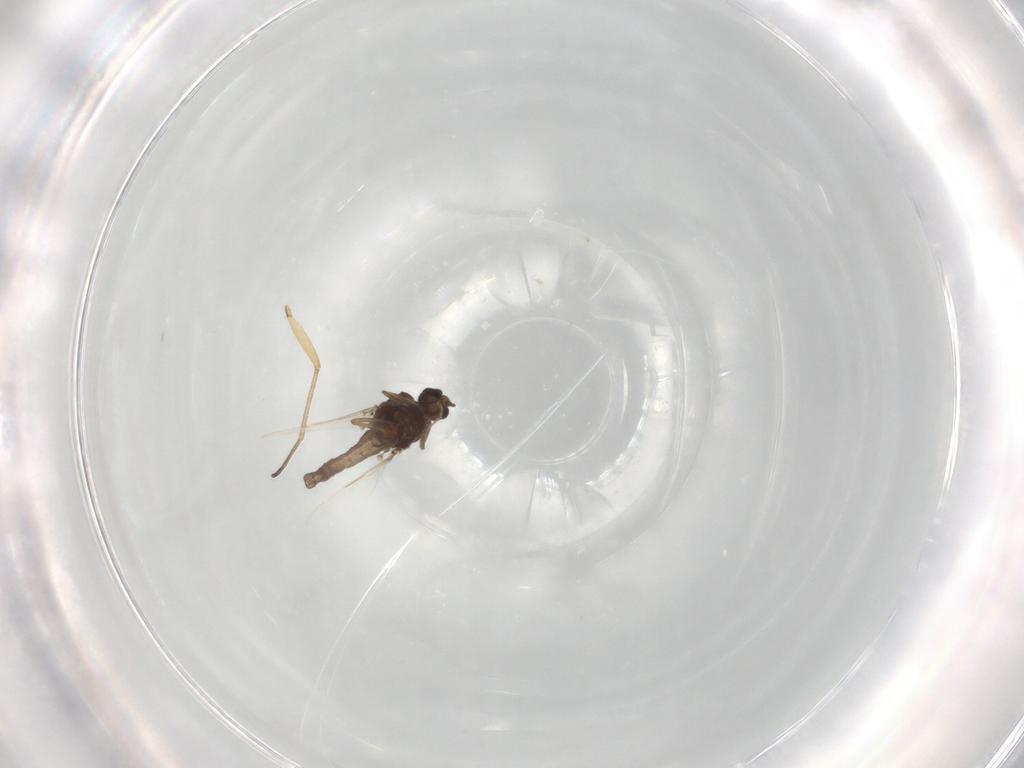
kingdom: Animalia
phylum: Arthropoda
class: Insecta
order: Diptera
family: Ceratopogonidae
